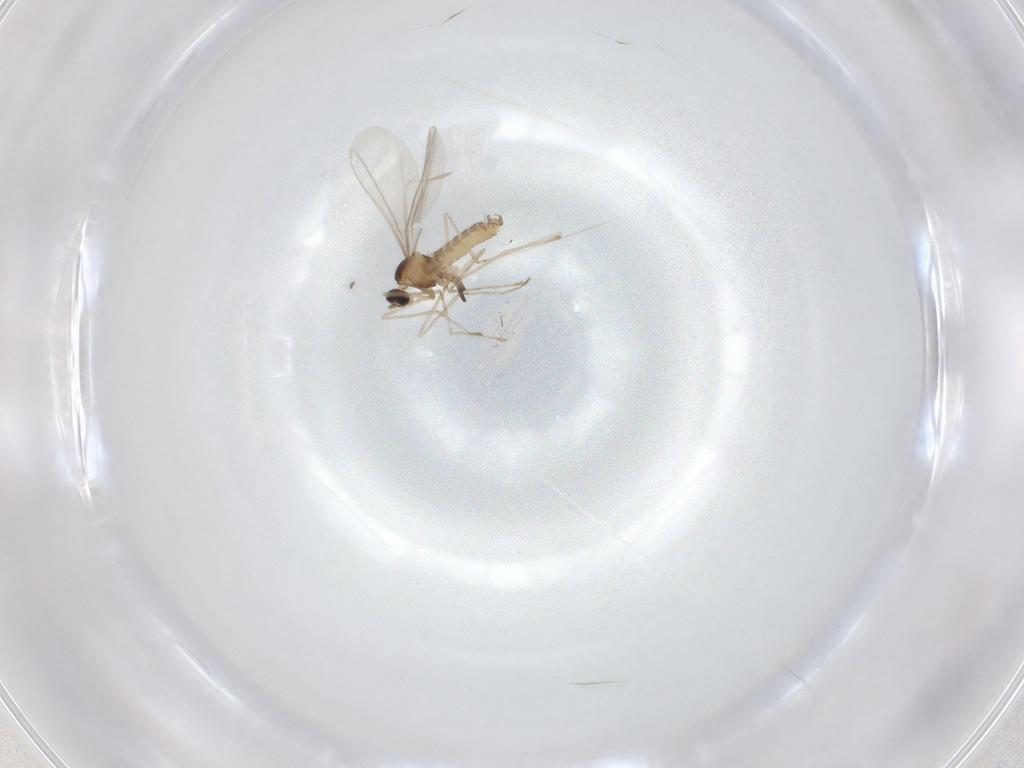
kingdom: Animalia
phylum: Arthropoda
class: Insecta
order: Diptera
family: Cecidomyiidae
